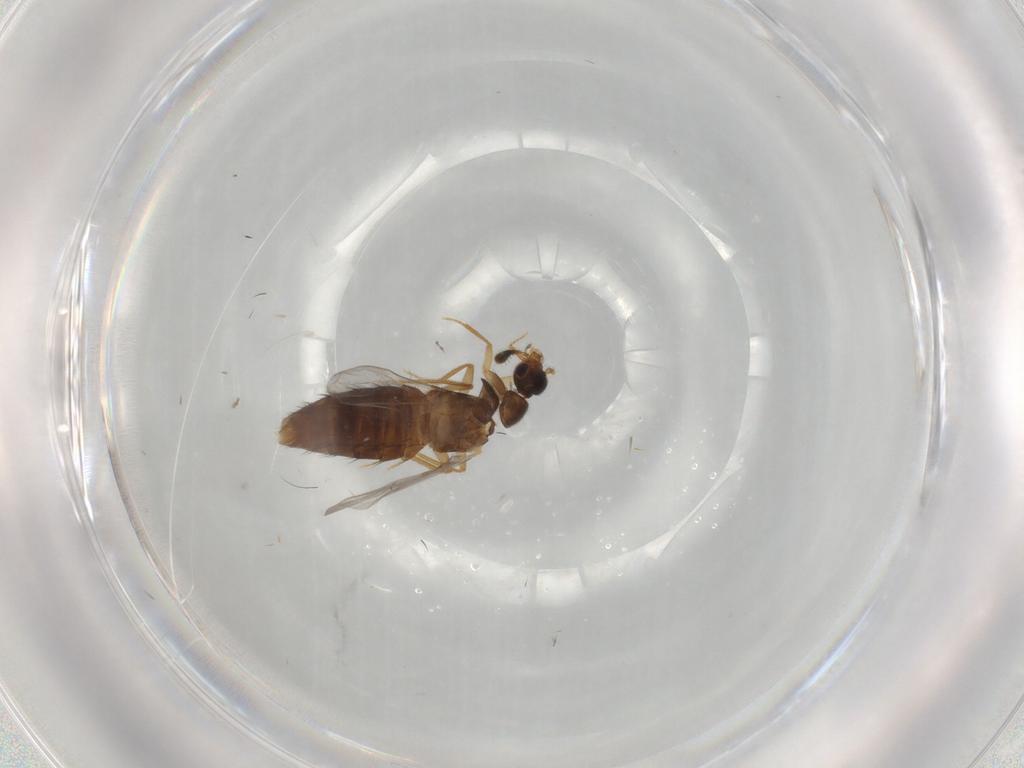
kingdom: Animalia
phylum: Arthropoda
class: Insecta
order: Coleoptera
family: Staphylinidae
